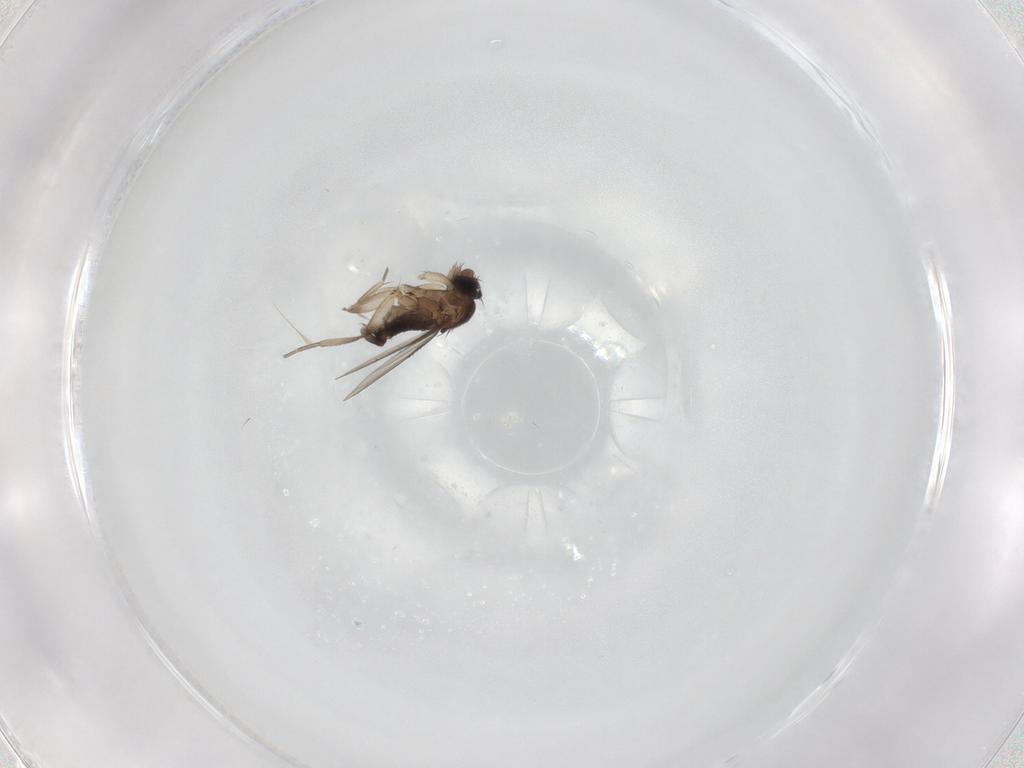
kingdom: Animalia
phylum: Arthropoda
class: Insecta
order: Diptera
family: Phoridae
